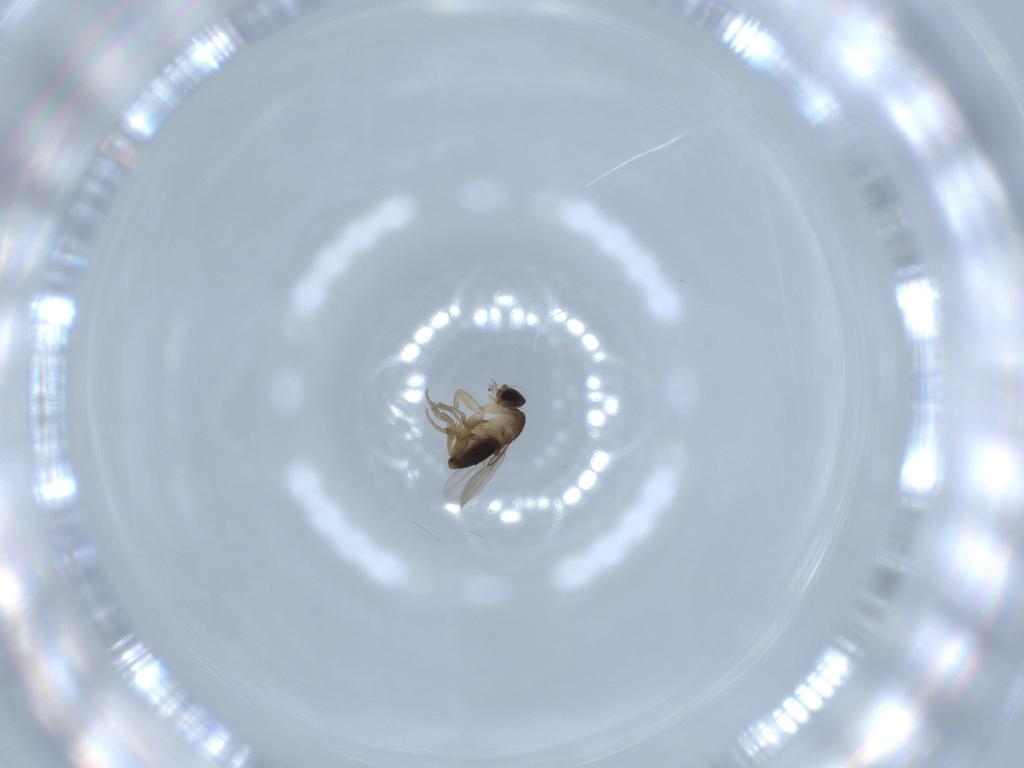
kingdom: Animalia
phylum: Arthropoda
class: Insecta
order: Diptera
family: Phoridae
